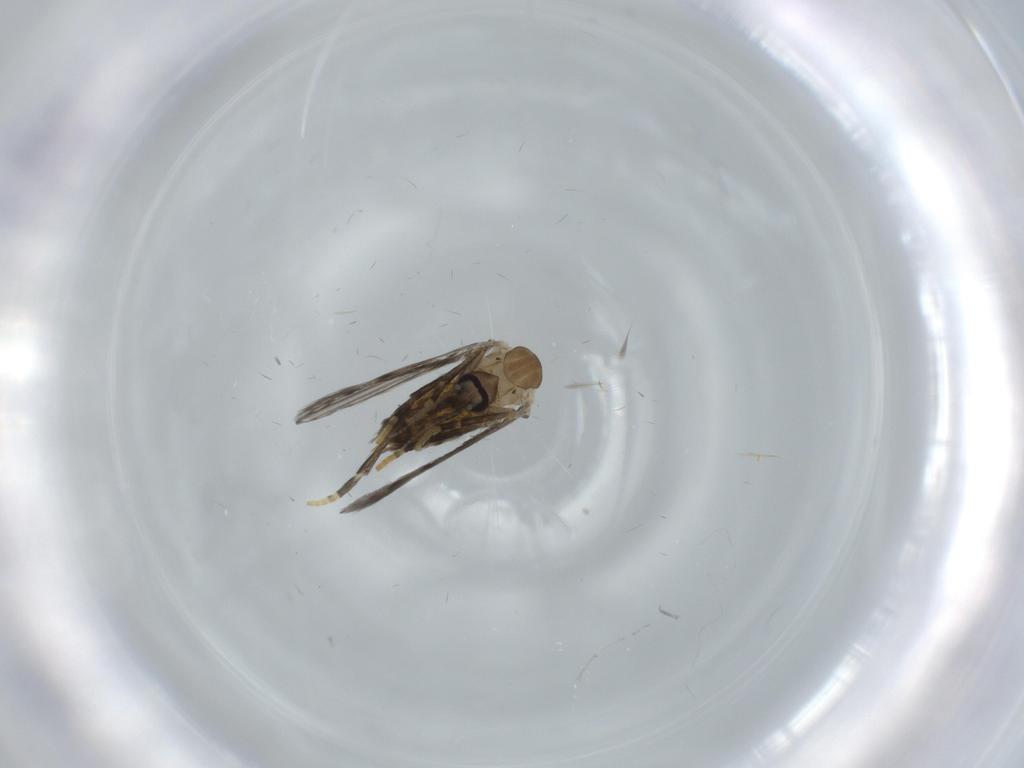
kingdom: Animalia
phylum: Arthropoda
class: Insecta
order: Diptera
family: Psychodidae
